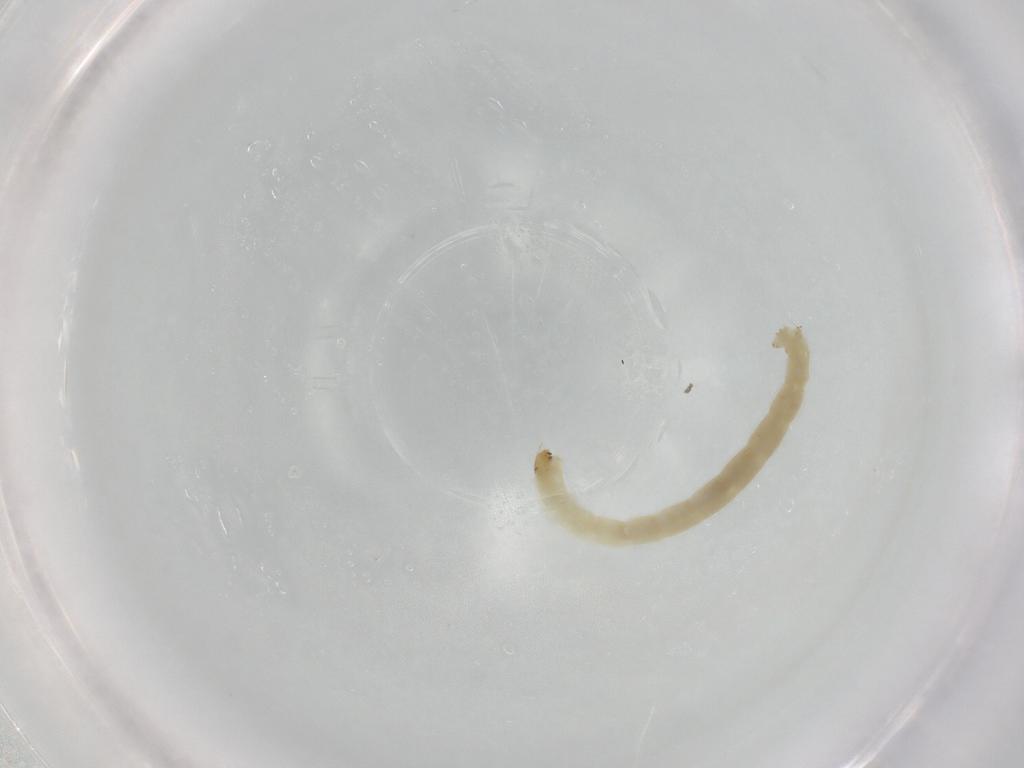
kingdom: Animalia
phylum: Arthropoda
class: Insecta
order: Diptera
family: Chironomidae
